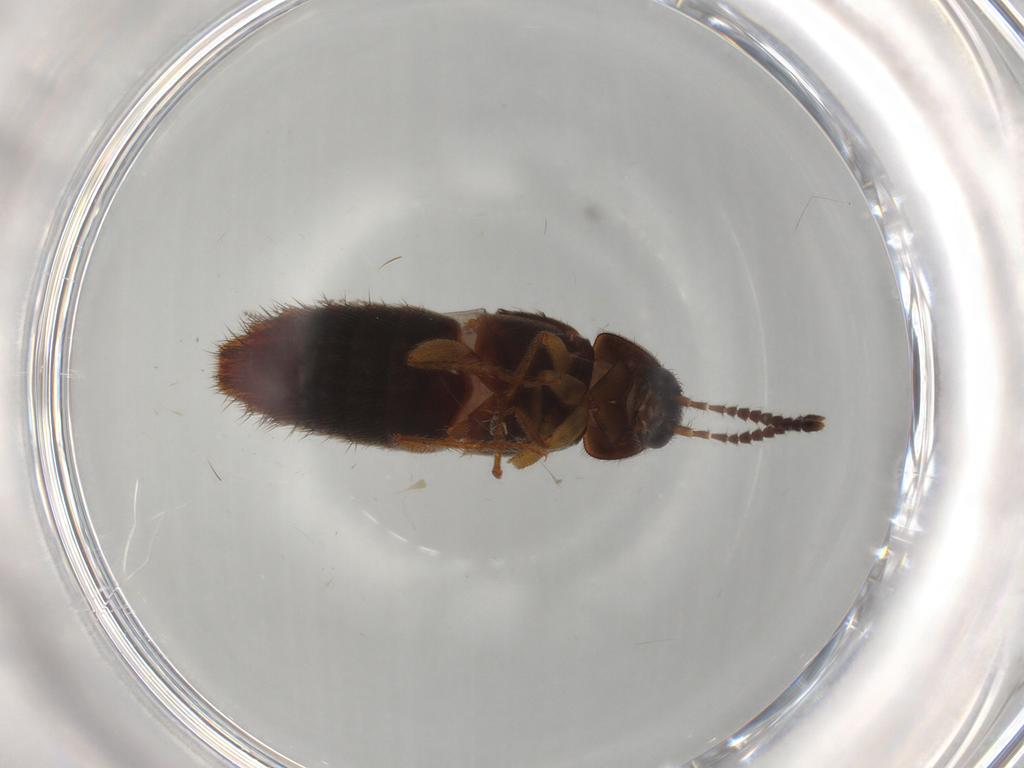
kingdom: Animalia
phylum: Arthropoda
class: Insecta
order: Coleoptera
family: Staphylinidae
